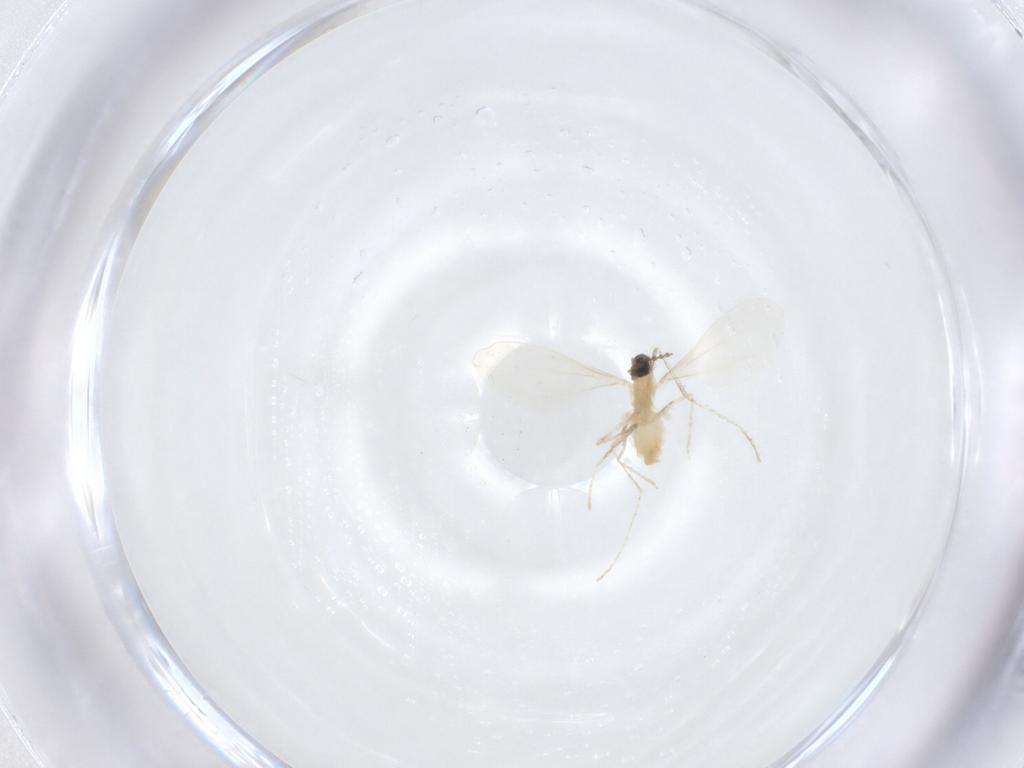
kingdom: Animalia
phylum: Arthropoda
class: Insecta
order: Diptera
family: Cecidomyiidae
